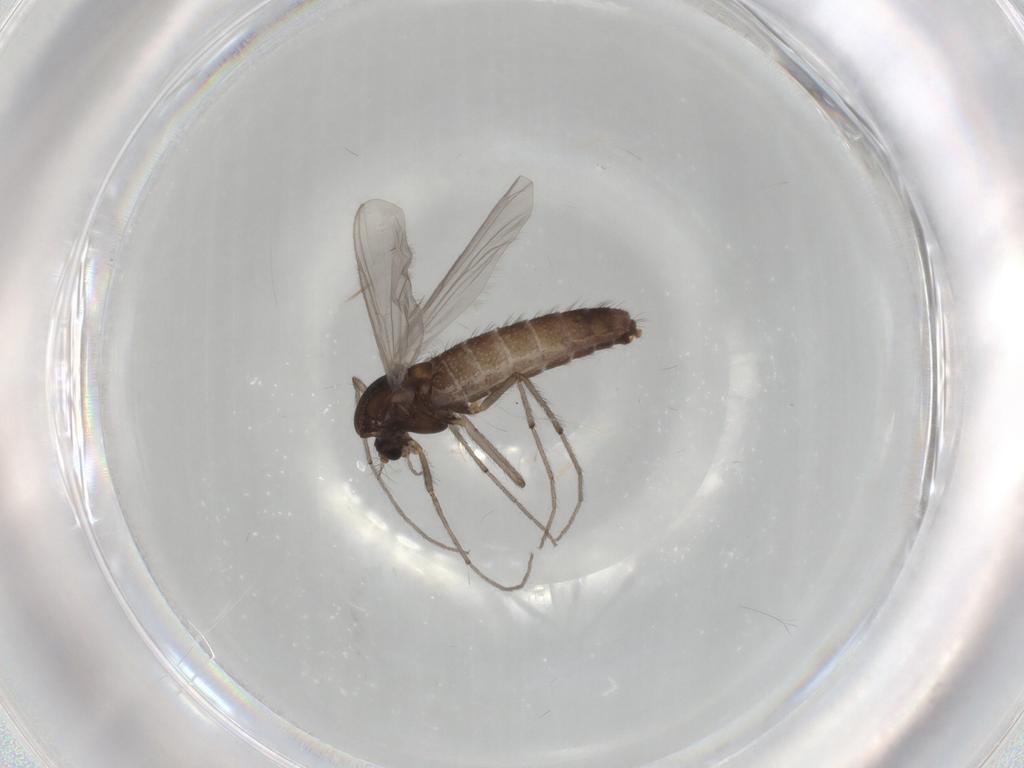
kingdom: Animalia
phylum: Arthropoda
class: Insecta
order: Diptera
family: Chironomidae
